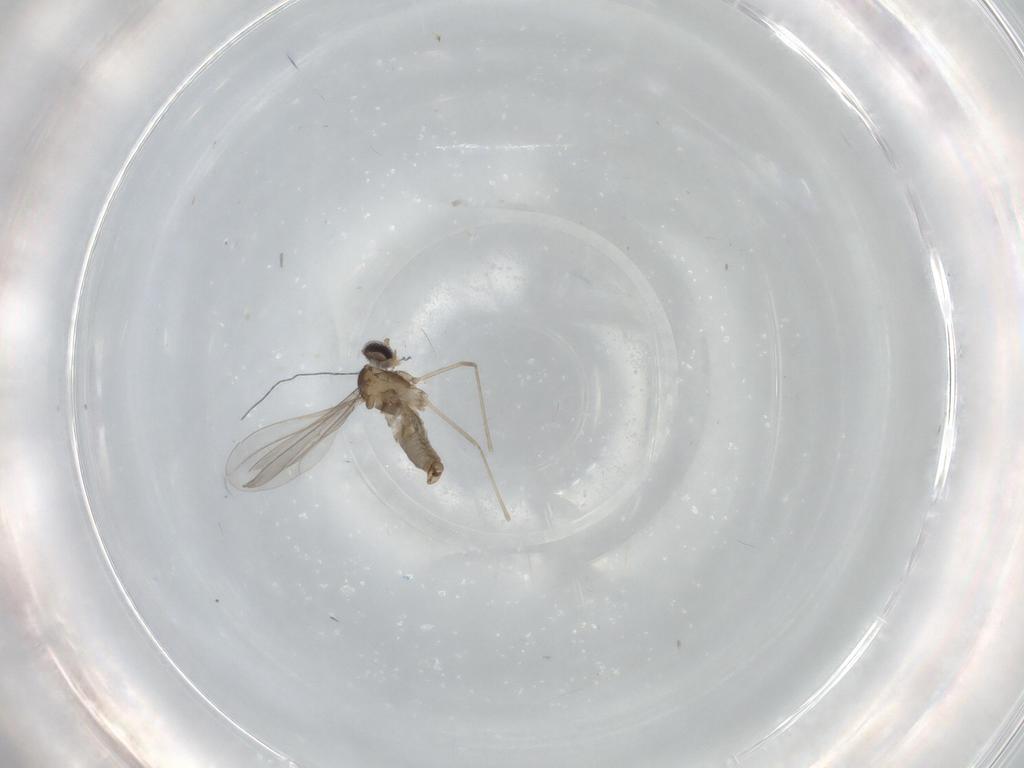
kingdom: Animalia
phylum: Arthropoda
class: Insecta
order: Diptera
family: Cecidomyiidae
